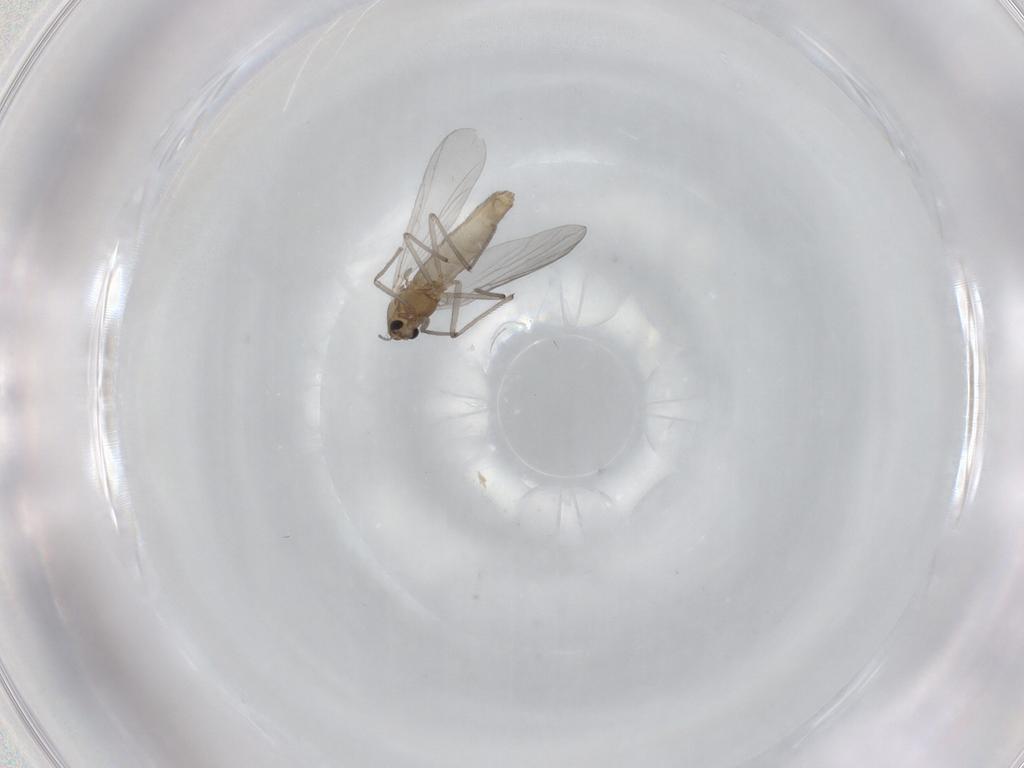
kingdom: Animalia
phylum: Arthropoda
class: Insecta
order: Diptera
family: Chironomidae
